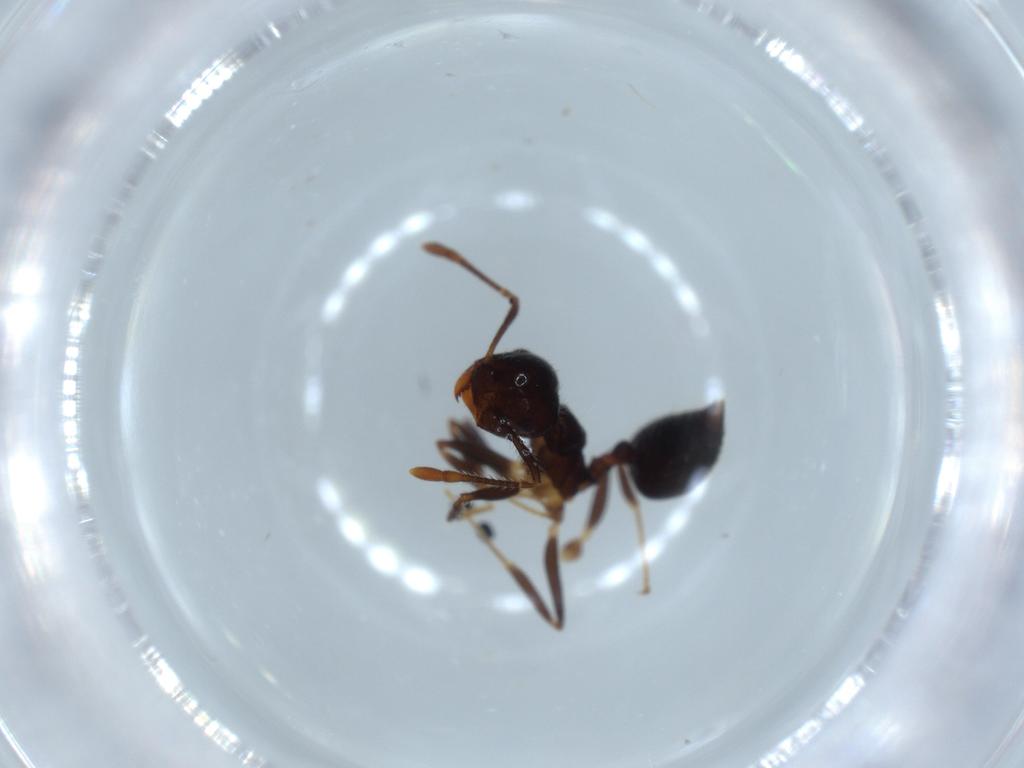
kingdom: Animalia
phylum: Arthropoda
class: Insecta
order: Hymenoptera
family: Formicidae
